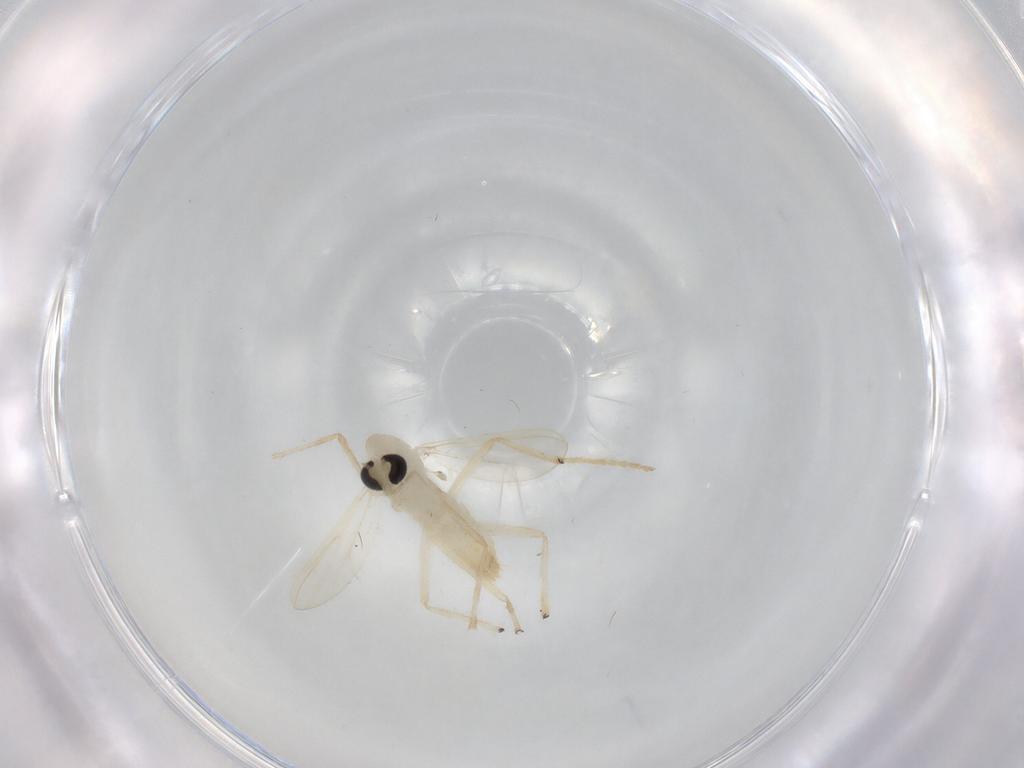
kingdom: Animalia
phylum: Arthropoda
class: Insecta
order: Diptera
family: Chironomidae
